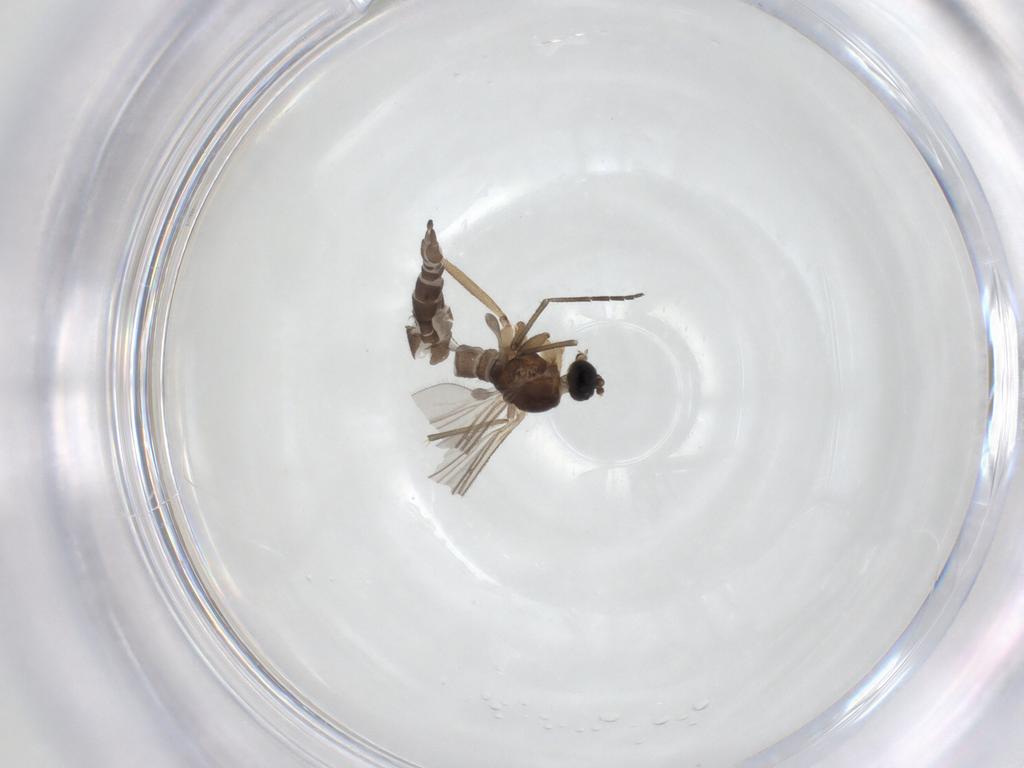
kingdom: Animalia
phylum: Arthropoda
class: Insecta
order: Diptera
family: Sciaridae
